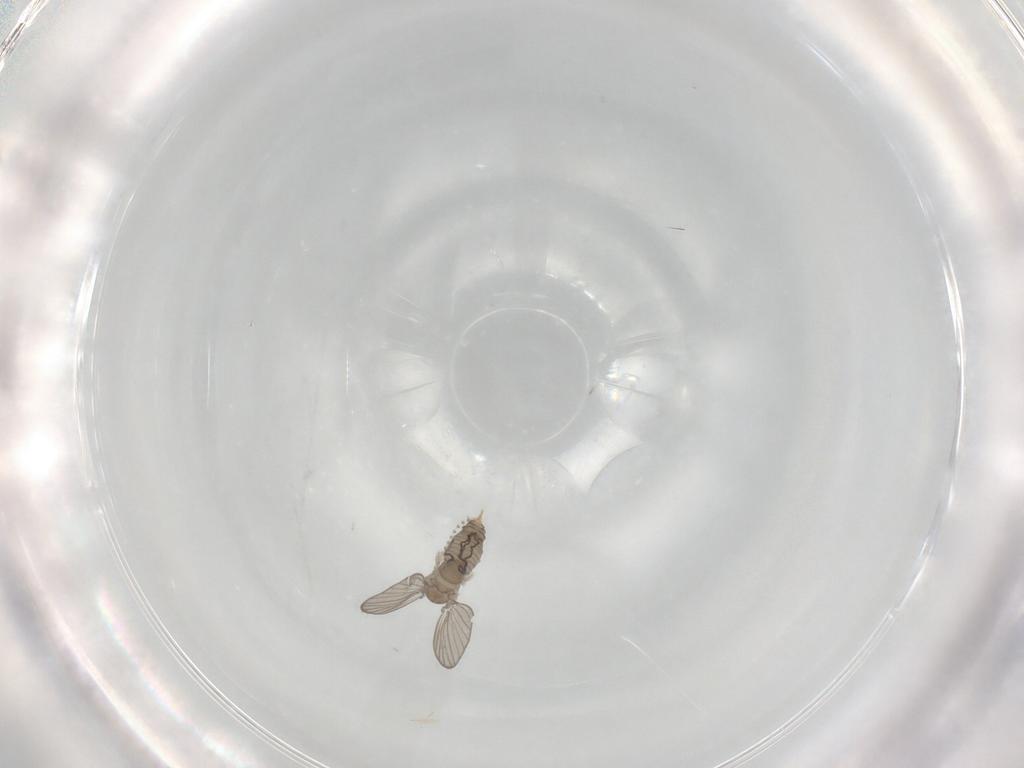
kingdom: Animalia
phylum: Arthropoda
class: Insecta
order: Diptera
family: Cecidomyiidae
